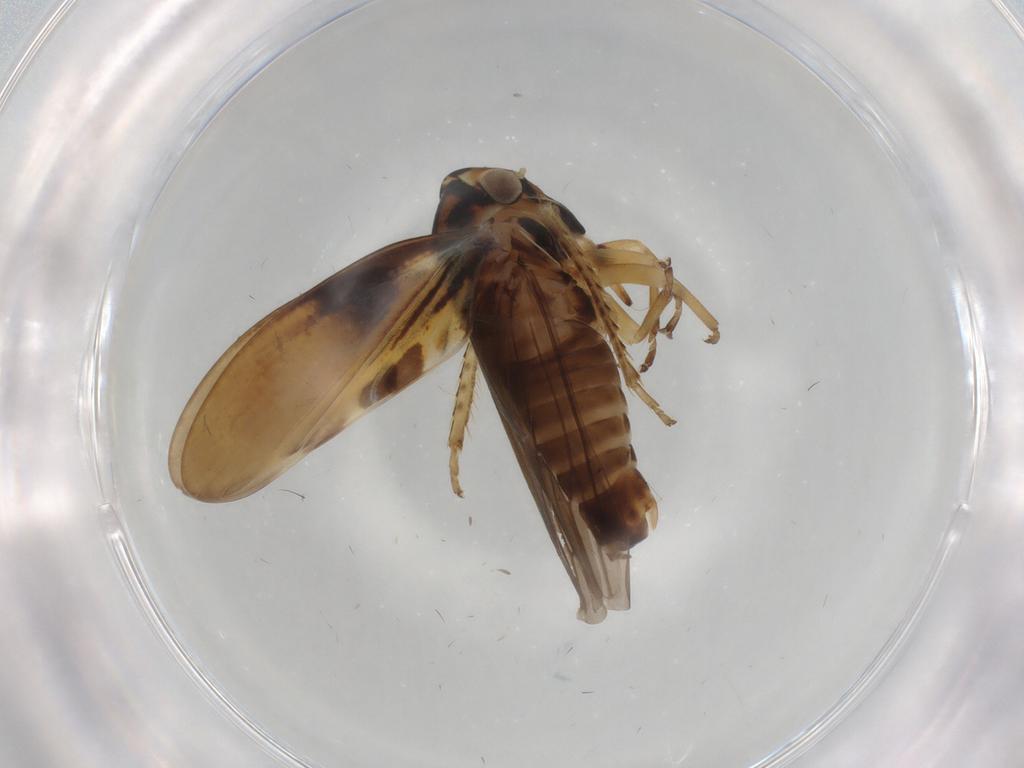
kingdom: Animalia
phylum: Arthropoda
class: Insecta
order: Hemiptera
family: Cicadellidae
